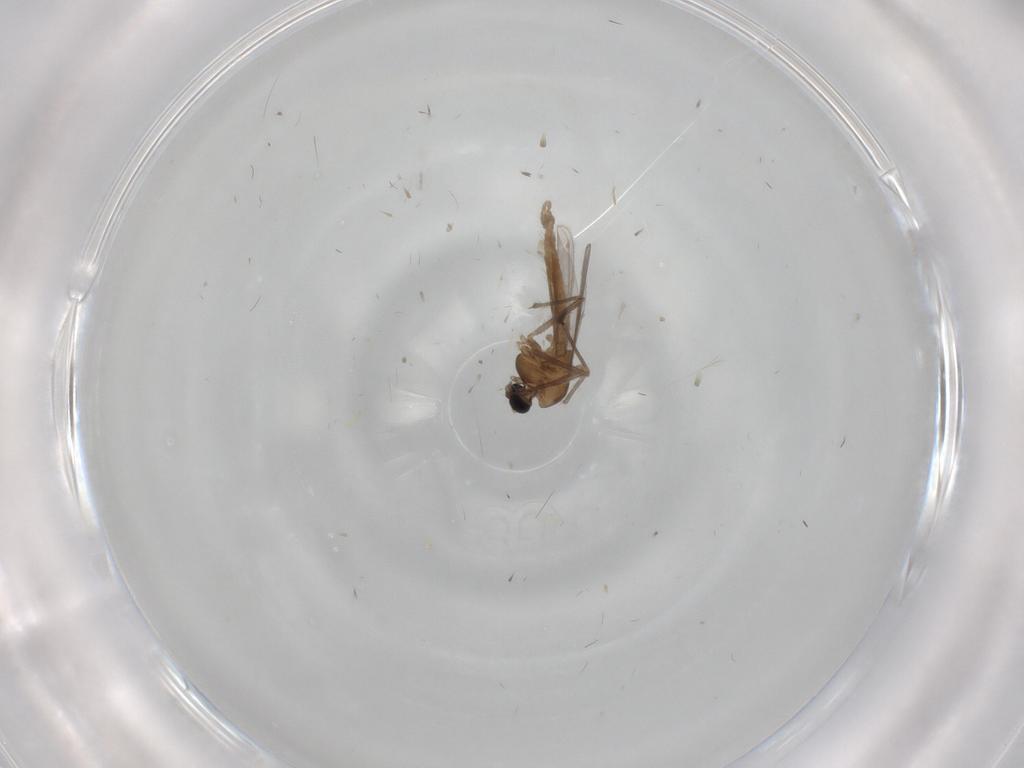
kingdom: Animalia
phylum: Arthropoda
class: Insecta
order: Diptera
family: Chironomidae
